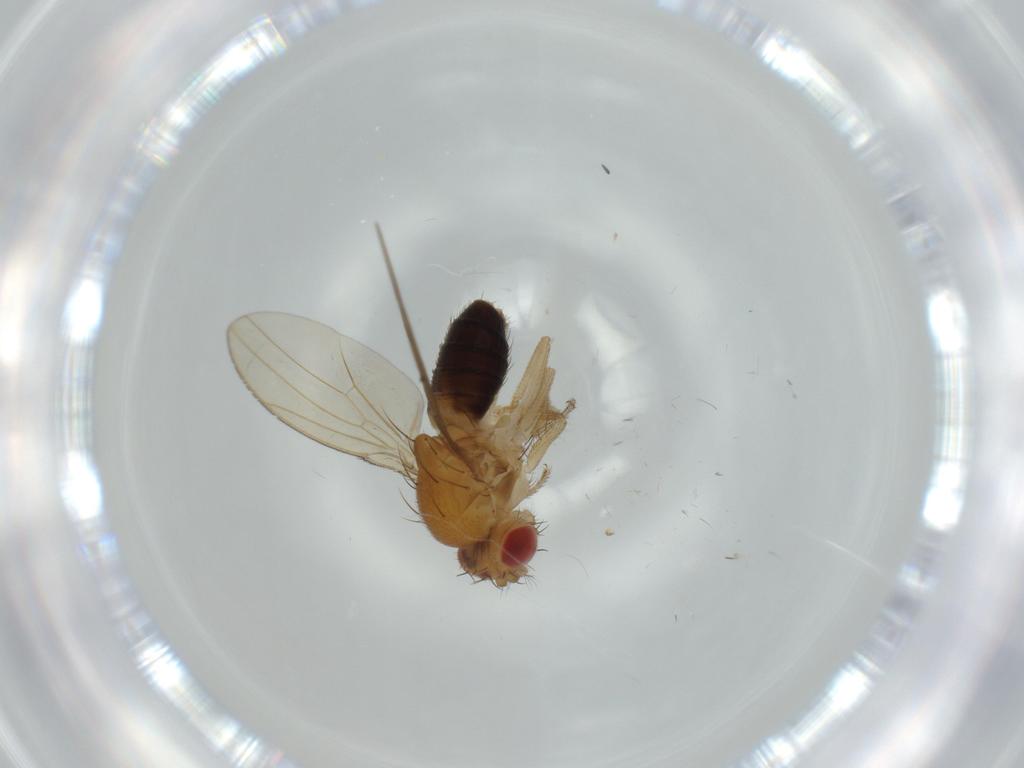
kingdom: Animalia
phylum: Arthropoda
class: Insecta
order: Diptera
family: Sciaridae
